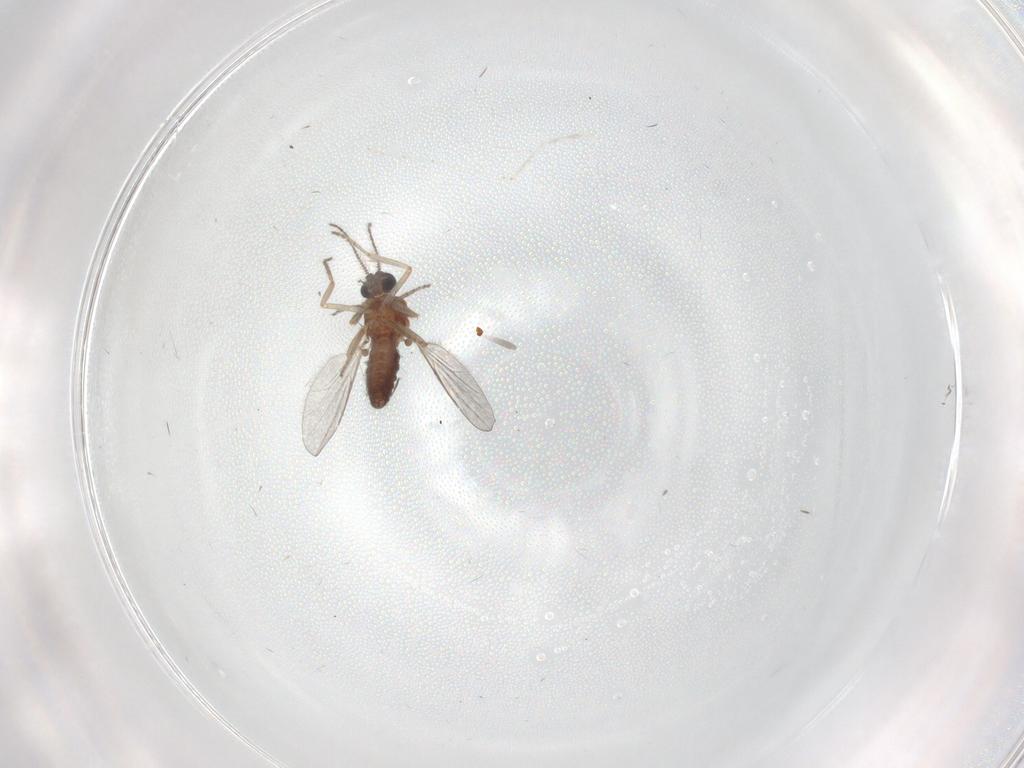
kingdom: Animalia
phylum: Arthropoda
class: Insecta
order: Diptera
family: Ceratopogonidae
